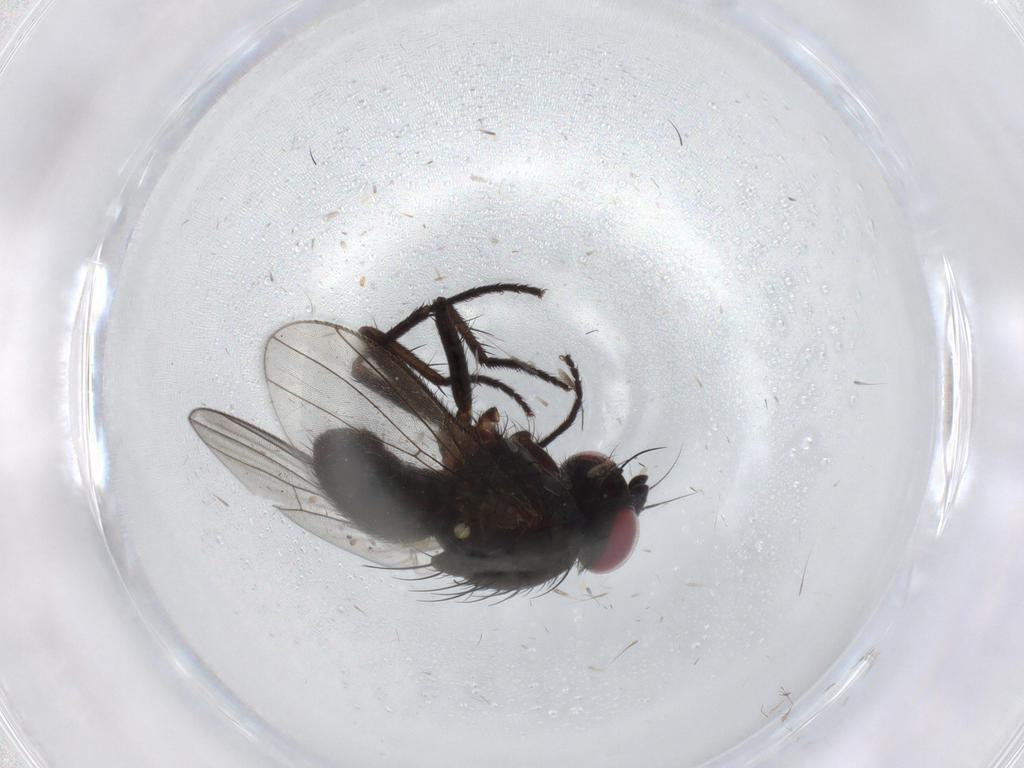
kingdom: Animalia
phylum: Arthropoda
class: Insecta
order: Diptera
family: Muscidae
